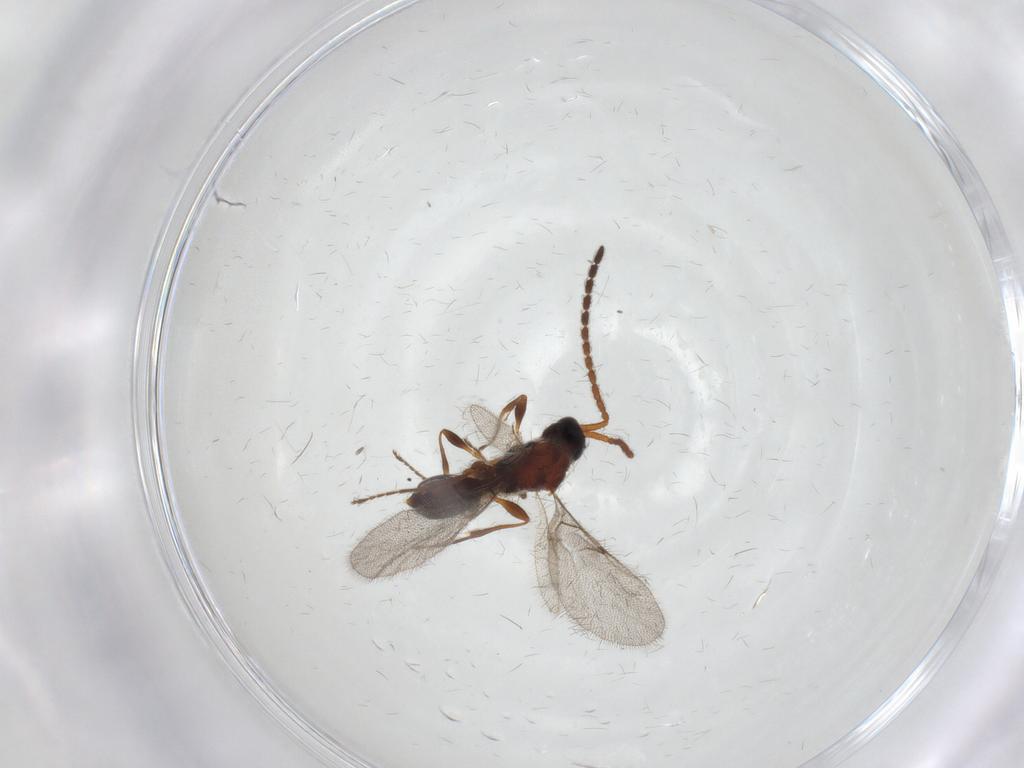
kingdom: Animalia
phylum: Arthropoda
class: Insecta
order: Hymenoptera
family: Diapriidae
